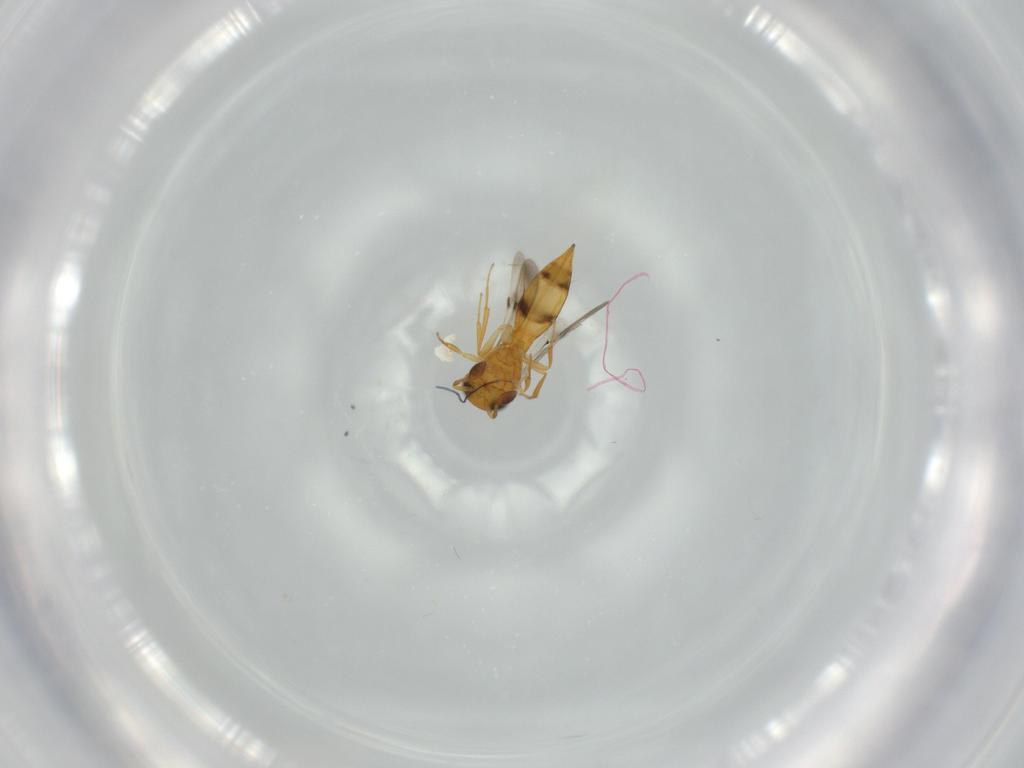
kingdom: Animalia
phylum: Arthropoda
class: Insecta
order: Hymenoptera
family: Scelionidae
